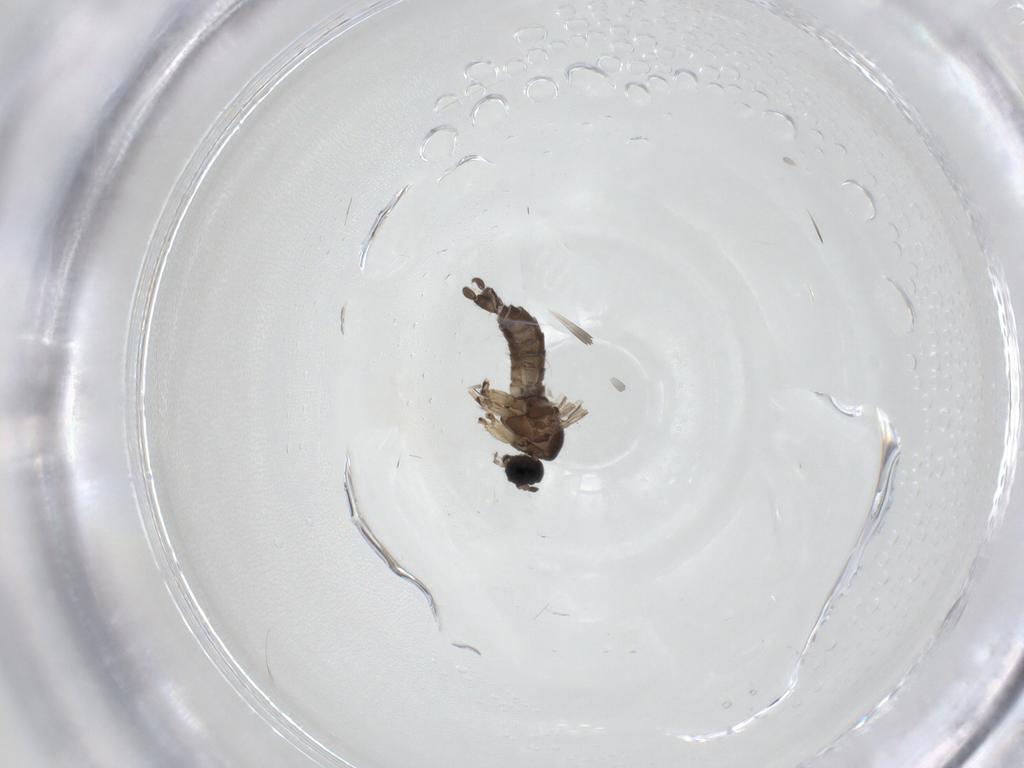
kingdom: Animalia
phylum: Arthropoda
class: Insecta
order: Diptera
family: Sciaridae
